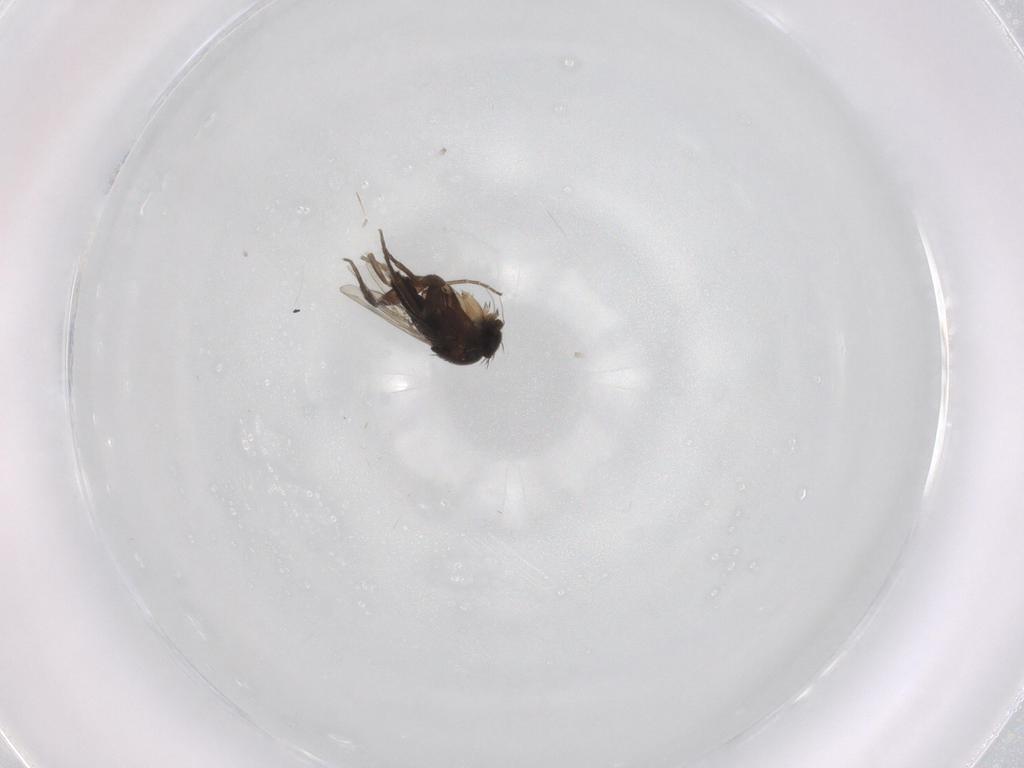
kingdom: Animalia
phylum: Arthropoda
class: Insecta
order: Diptera
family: Phoridae
